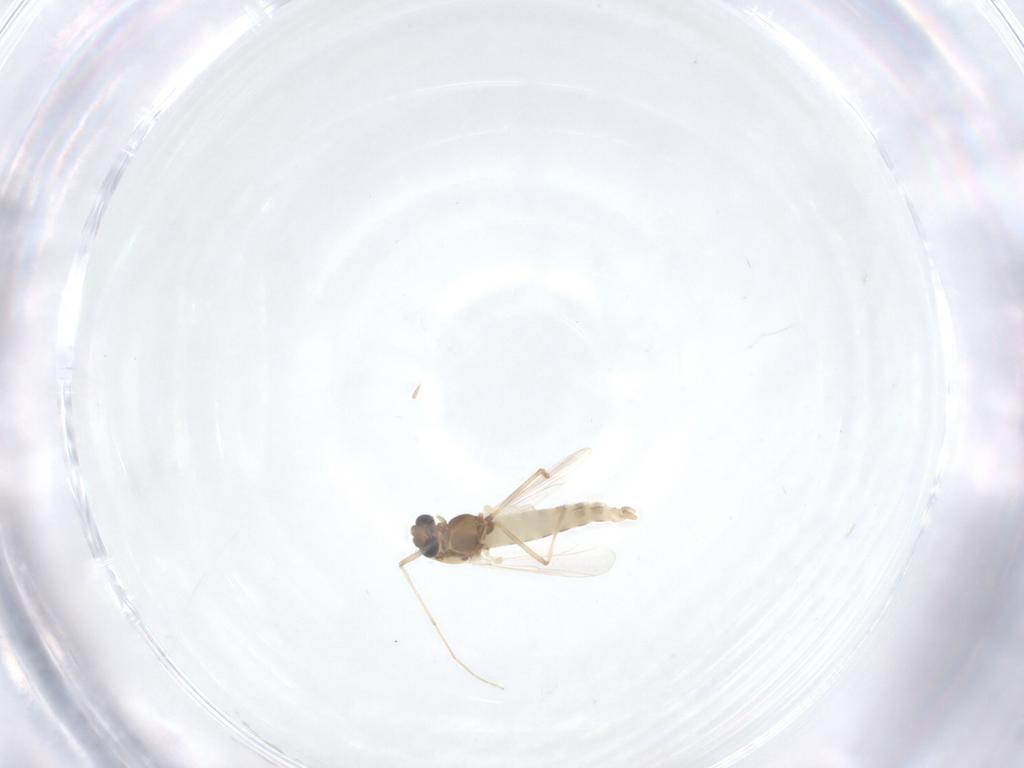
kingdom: Animalia
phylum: Arthropoda
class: Insecta
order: Diptera
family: Chironomidae
